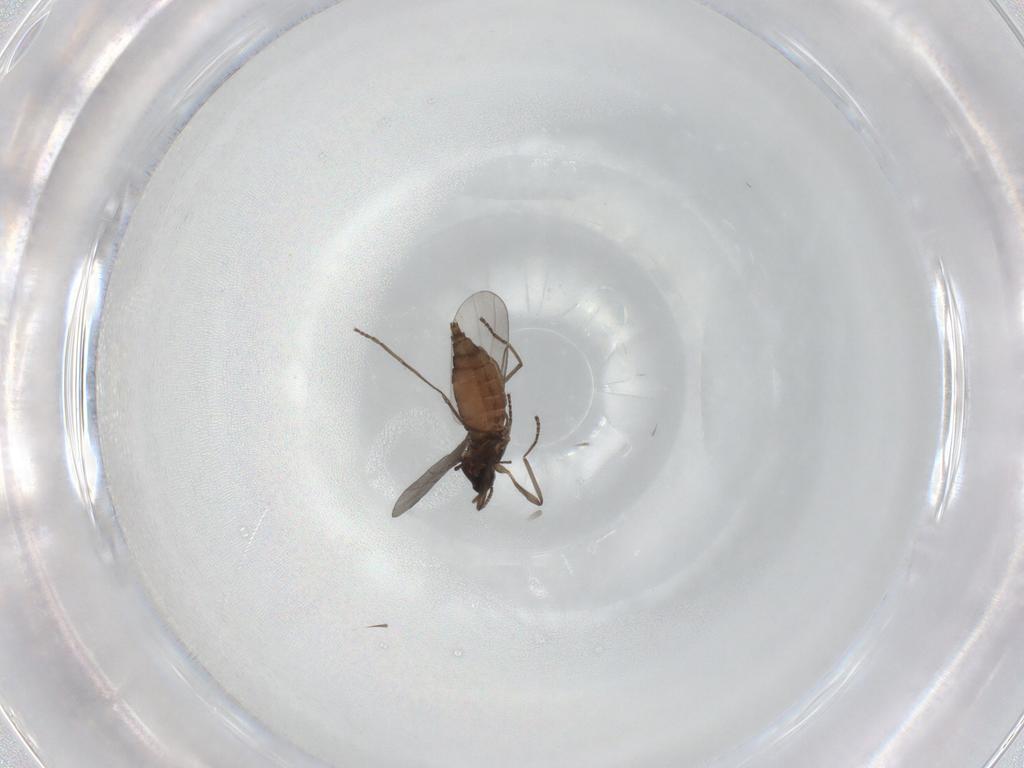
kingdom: Animalia
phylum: Arthropoda
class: Insecta
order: Diptera
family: Cecidomyiidae
